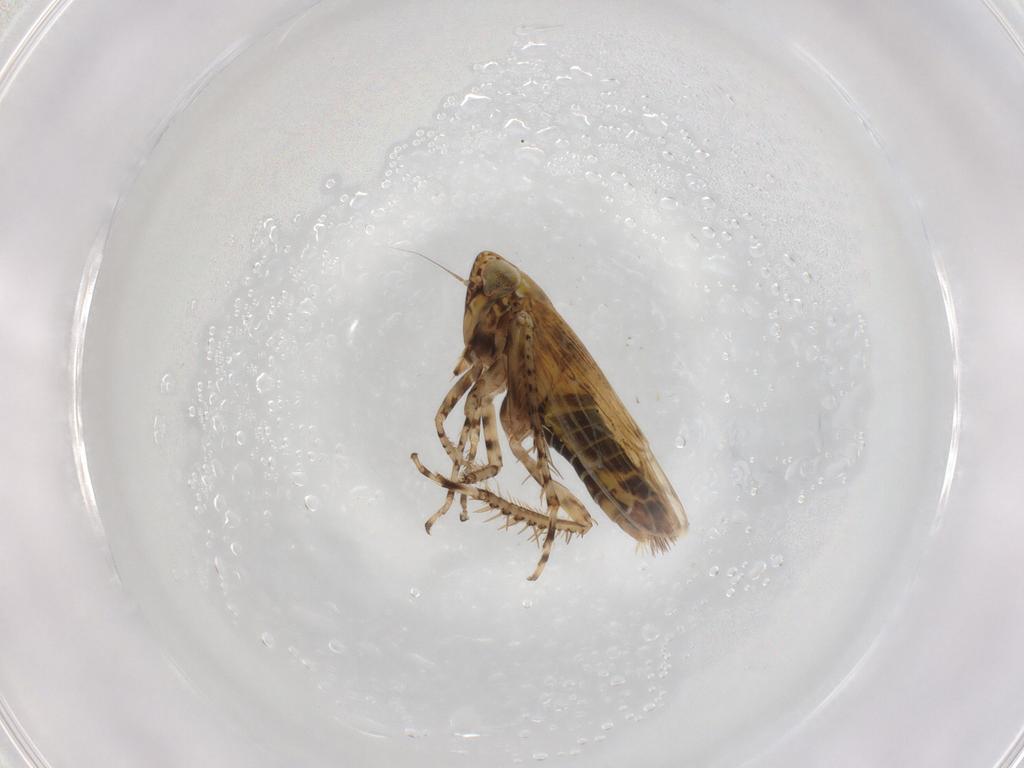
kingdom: Animalia
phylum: Arthropoda
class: Insecta
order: Hemiptera
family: Cicadellidae
